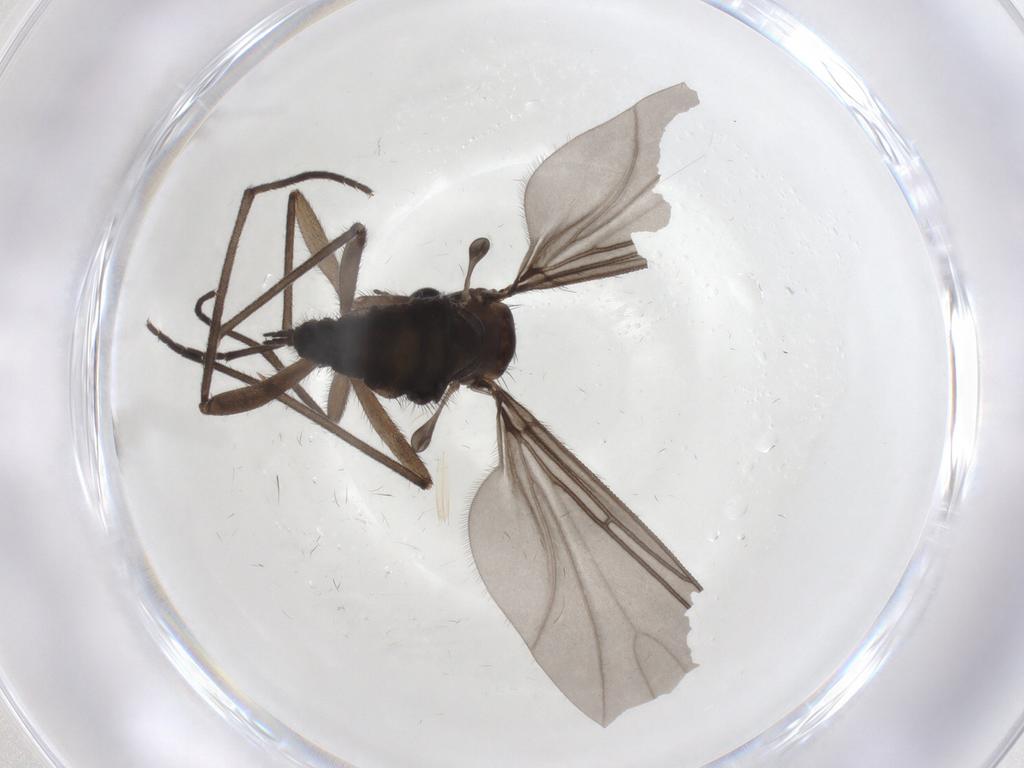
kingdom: Animalia
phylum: Arthropoda
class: Insecta
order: Diptera
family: Sciaridae
